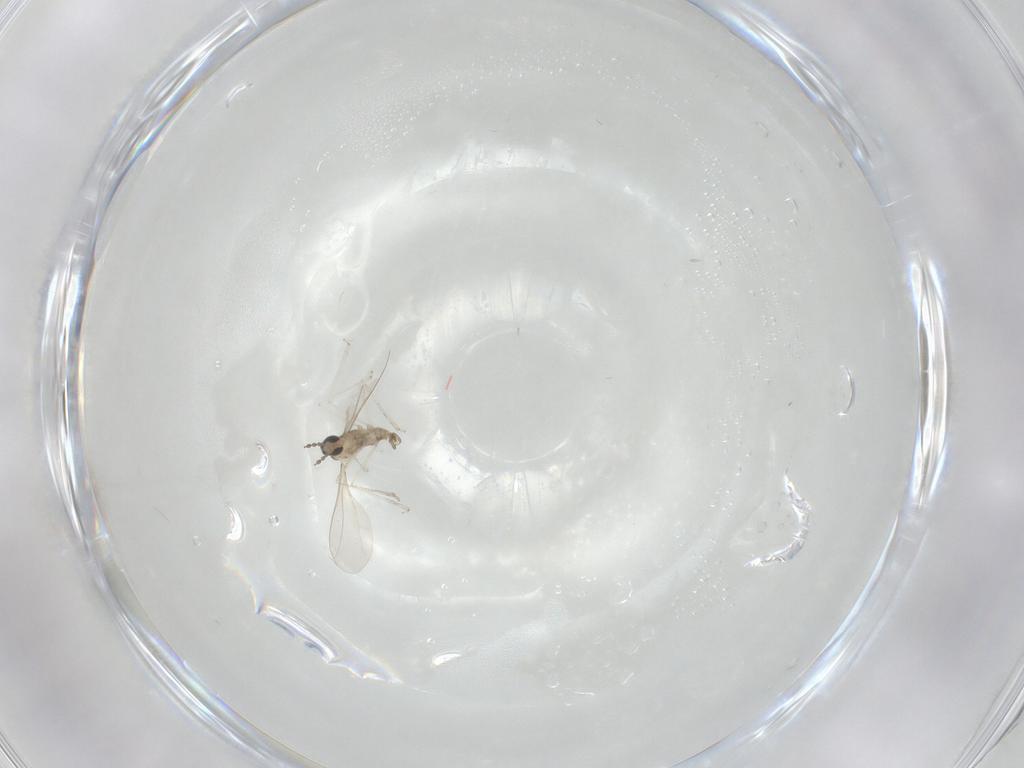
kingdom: Animalia
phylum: Arthropoda
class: Insecta
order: Diptera
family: Cecidomyiidae
